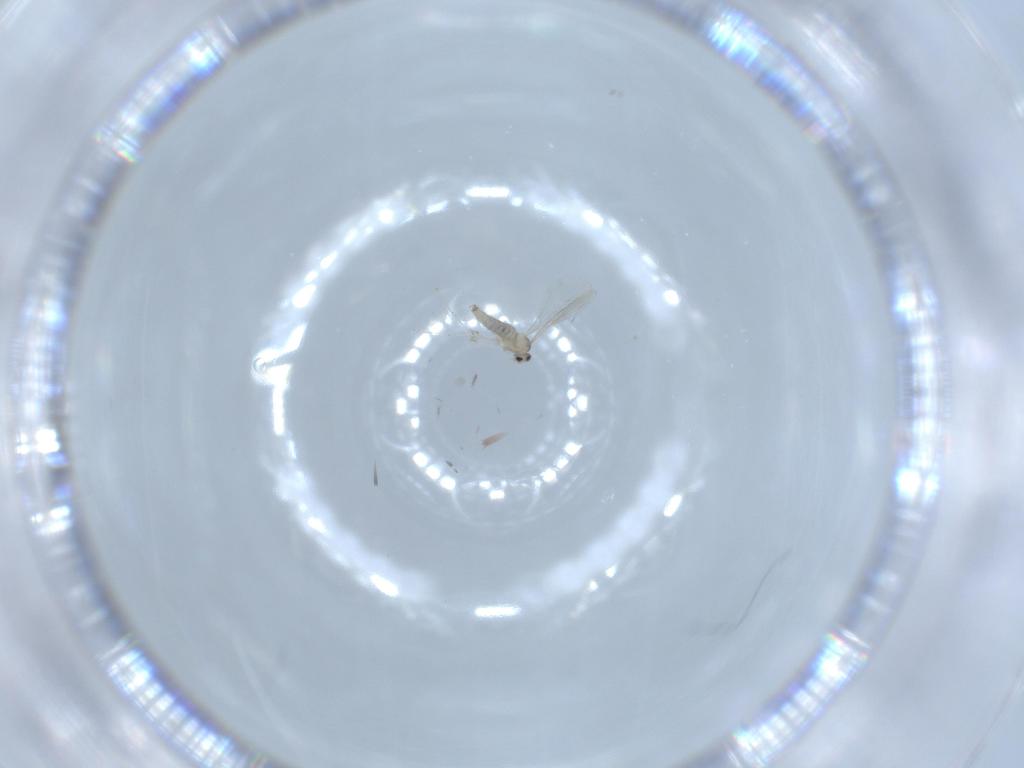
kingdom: Animalia
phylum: Arthropoda
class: Insecta
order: Diptera
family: Cecidomyiidae
